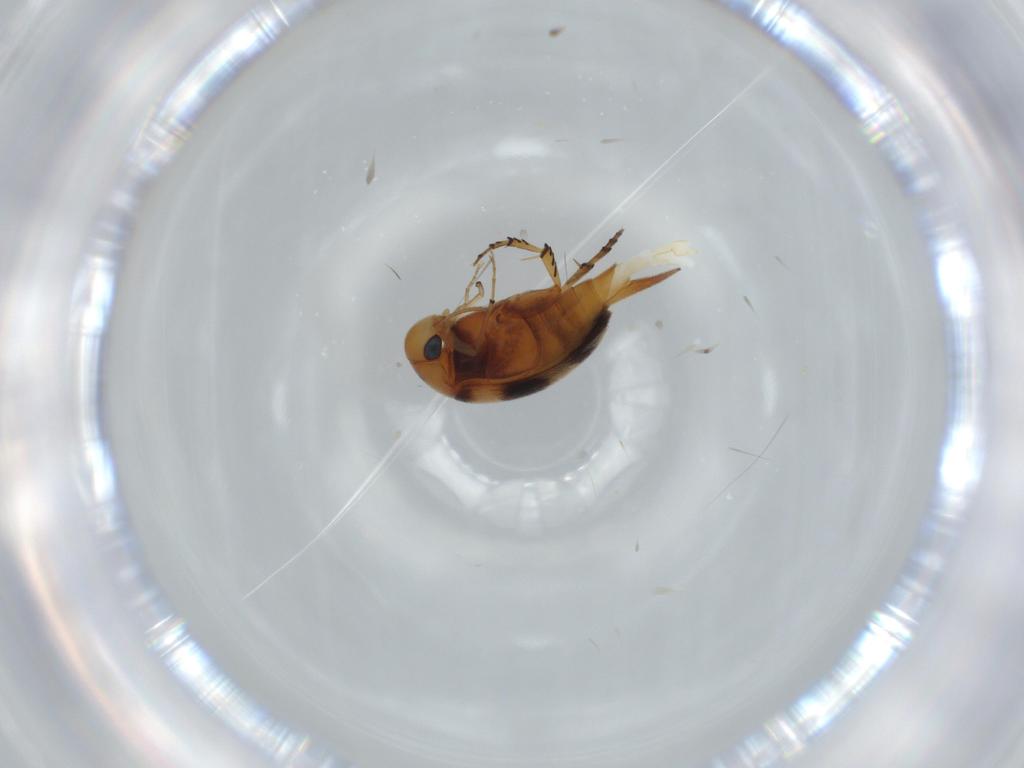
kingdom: Animalia
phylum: Arthropoda
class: Insecta
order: Coleoptera
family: Mordellidae
